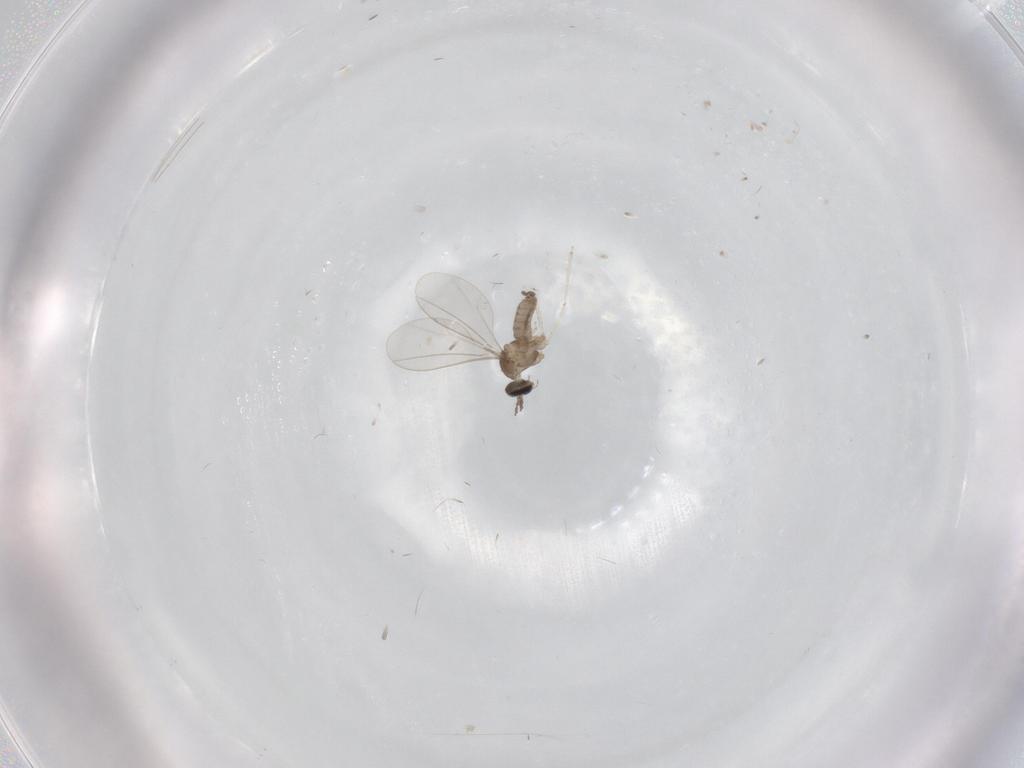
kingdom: Animalia
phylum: Arthropoda
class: Insecta
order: Diptera
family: Cecidomyiidae
